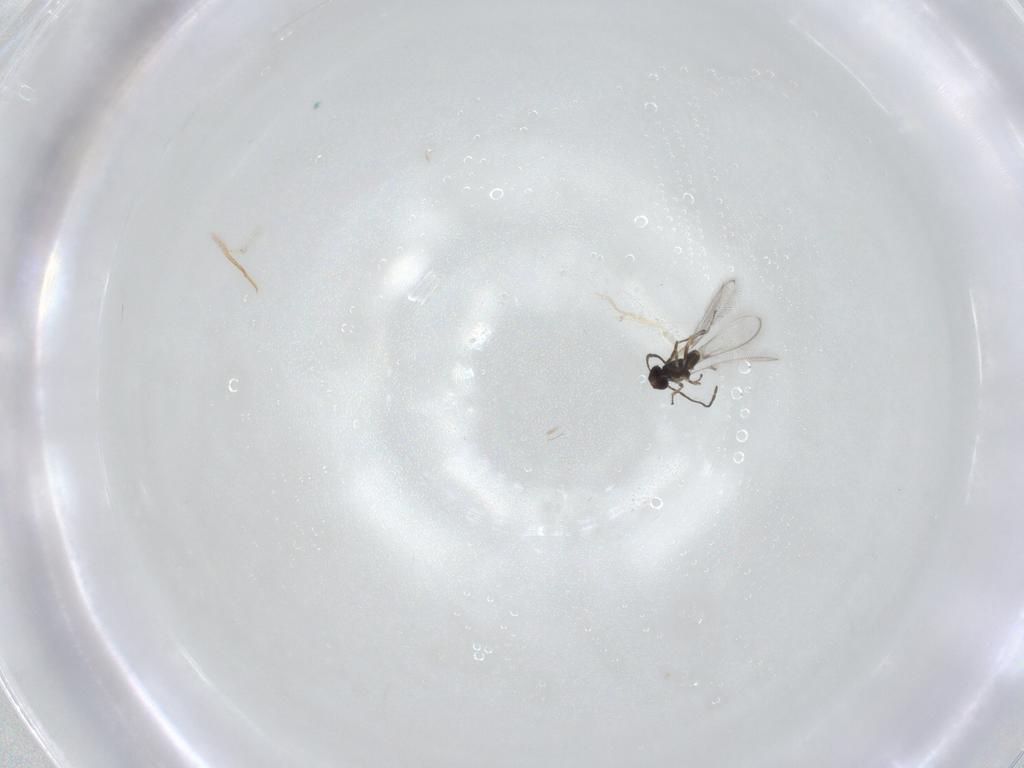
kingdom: Animalia
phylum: Arthropoda
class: Insecta
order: Hymenoptera
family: Mymaridae
